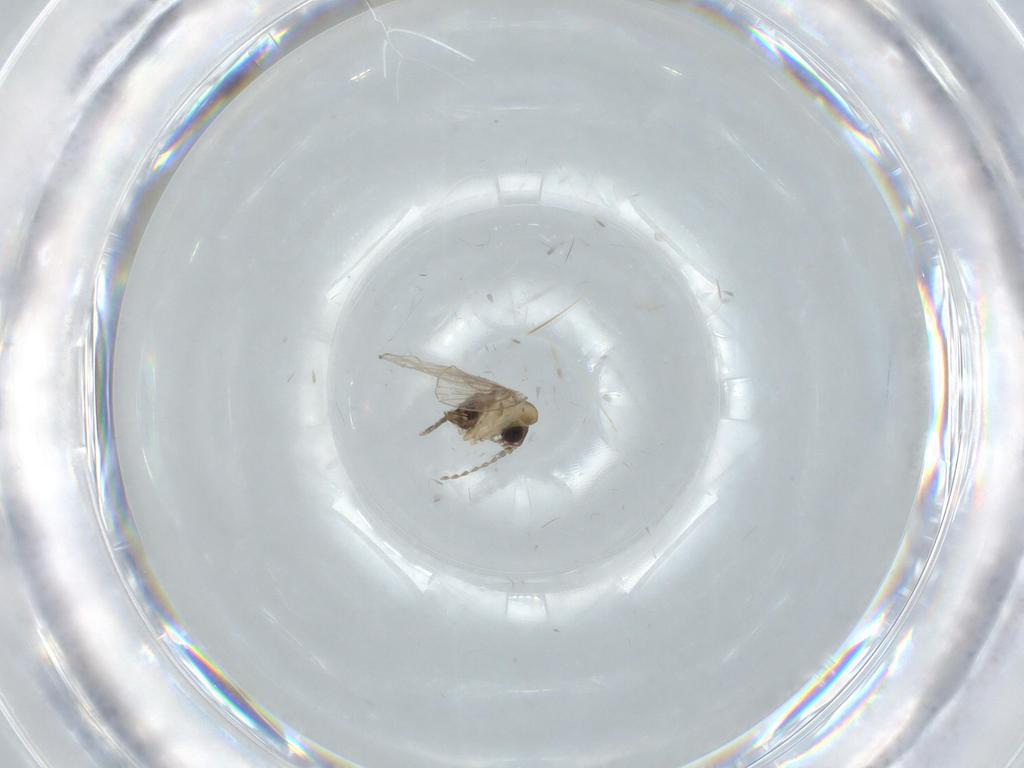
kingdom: Animalia
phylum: Arthropoda
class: Insecta
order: Diptera
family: Psychodidae
